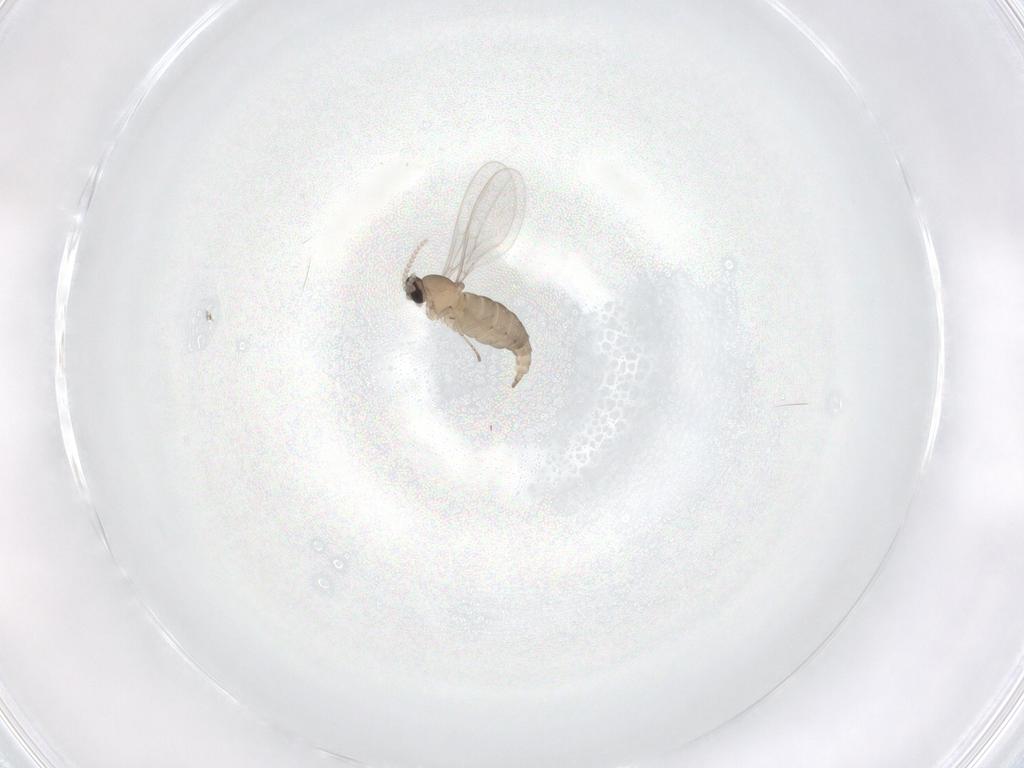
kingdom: Animalia
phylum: Arthropoda
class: Insecta
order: Diptera
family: Cecidomyiidae
